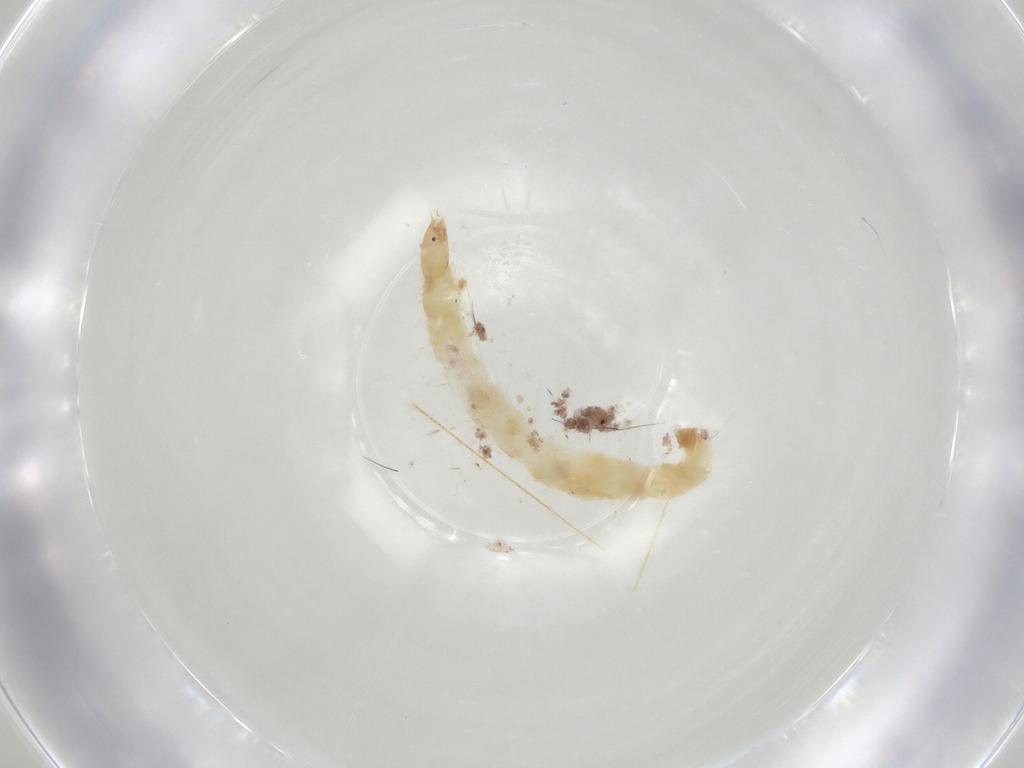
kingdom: Animalia
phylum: Arthropoda
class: Insecta
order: Diptera
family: Chironomidae
